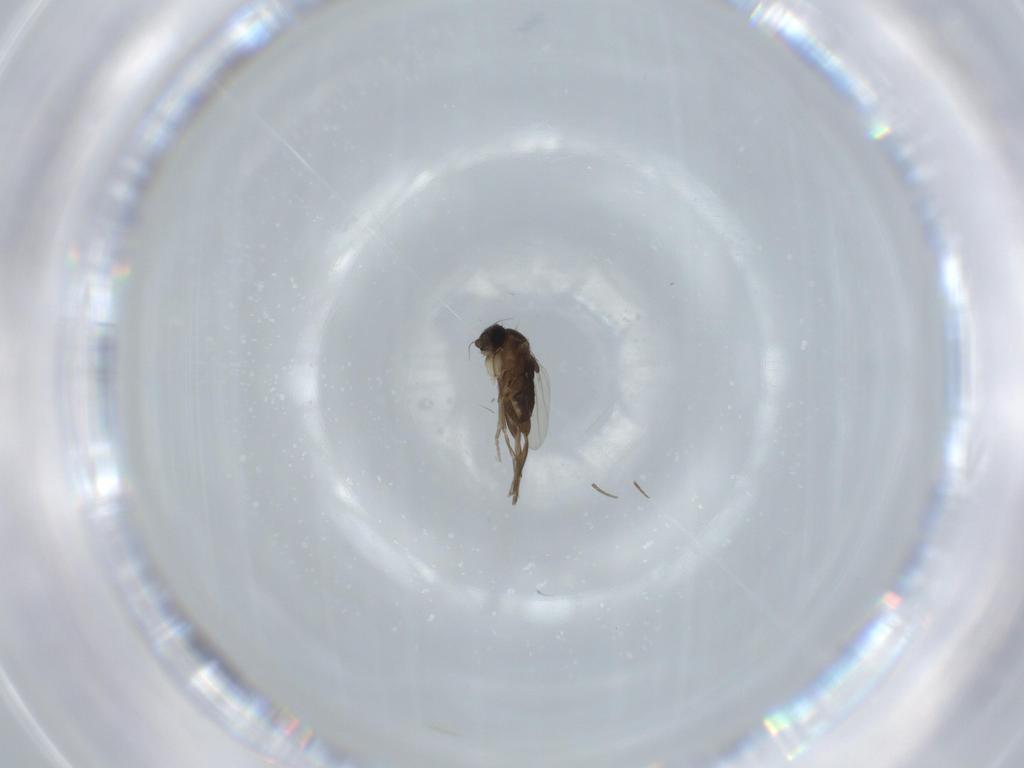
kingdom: Animalia
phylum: Arthropoda
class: Insecta
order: Diptera
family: Phoridae
